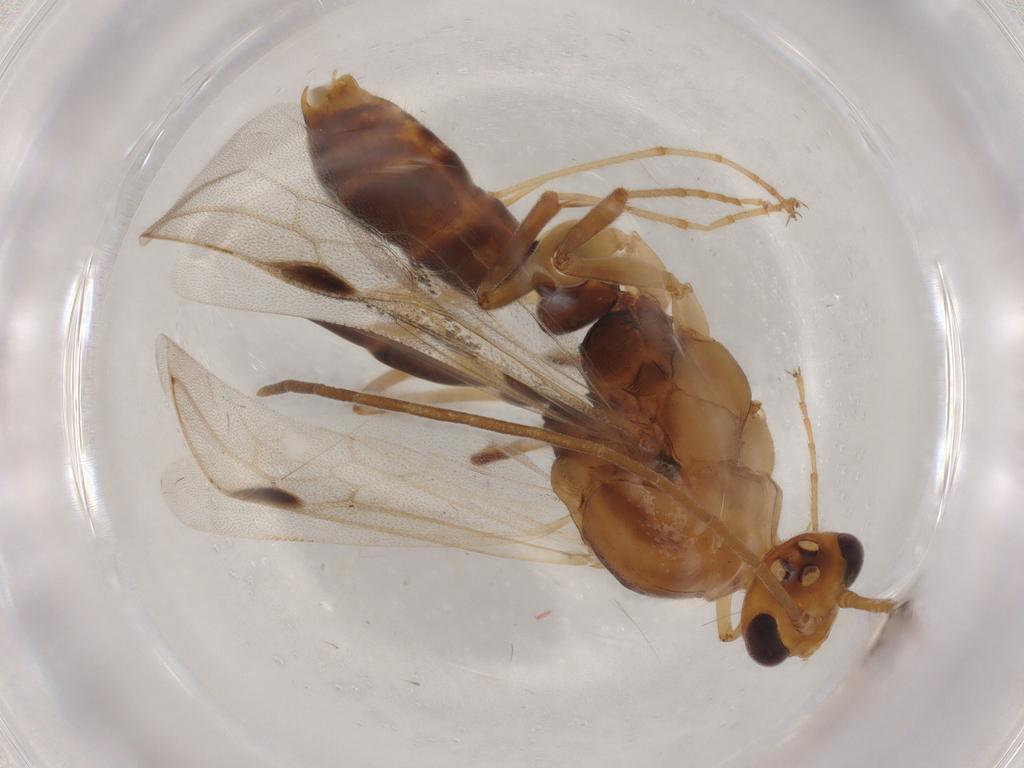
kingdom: Animalia
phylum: Arthropoda
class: Insecta
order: Hymenoptera
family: Formicidae
